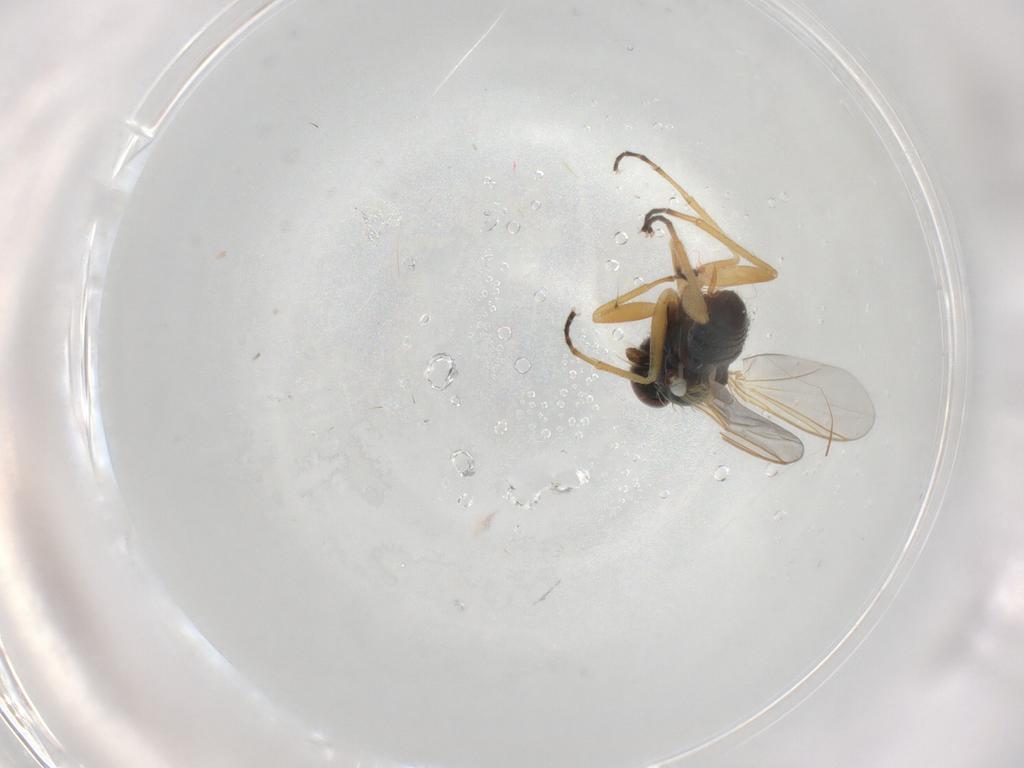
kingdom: Animalia
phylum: Arthropoda
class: Insecta
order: Diptera
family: Dolichopodidae
